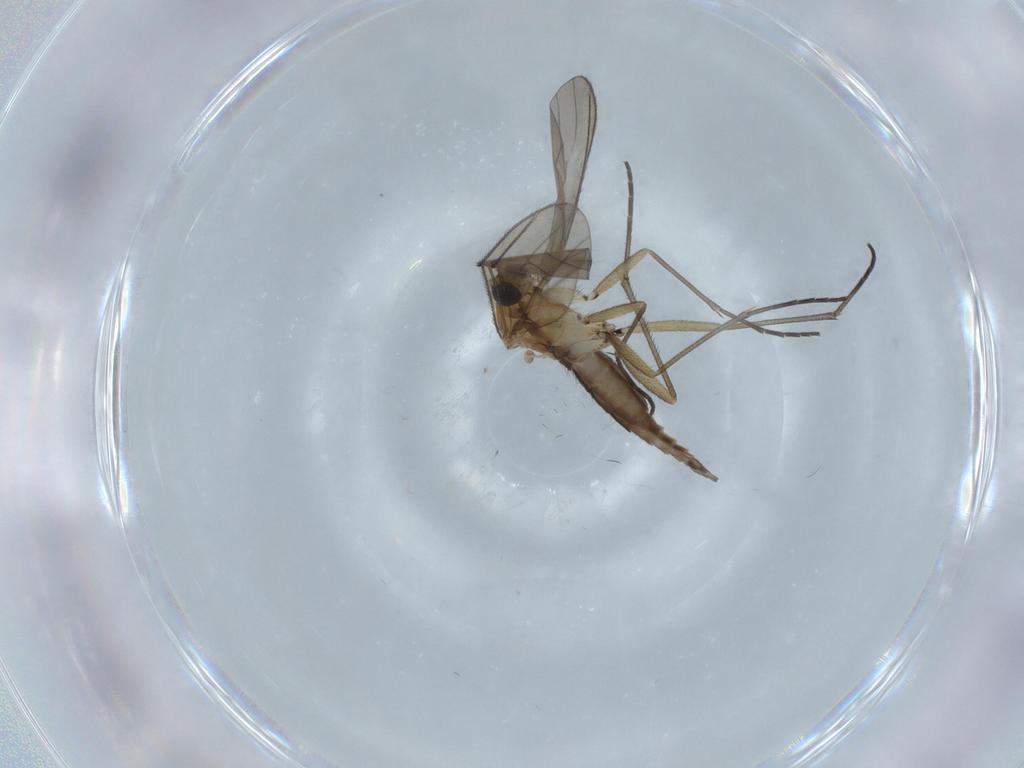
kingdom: Animalia
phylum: Arthropoda
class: Insecta
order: Diptera
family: Sciaridae
